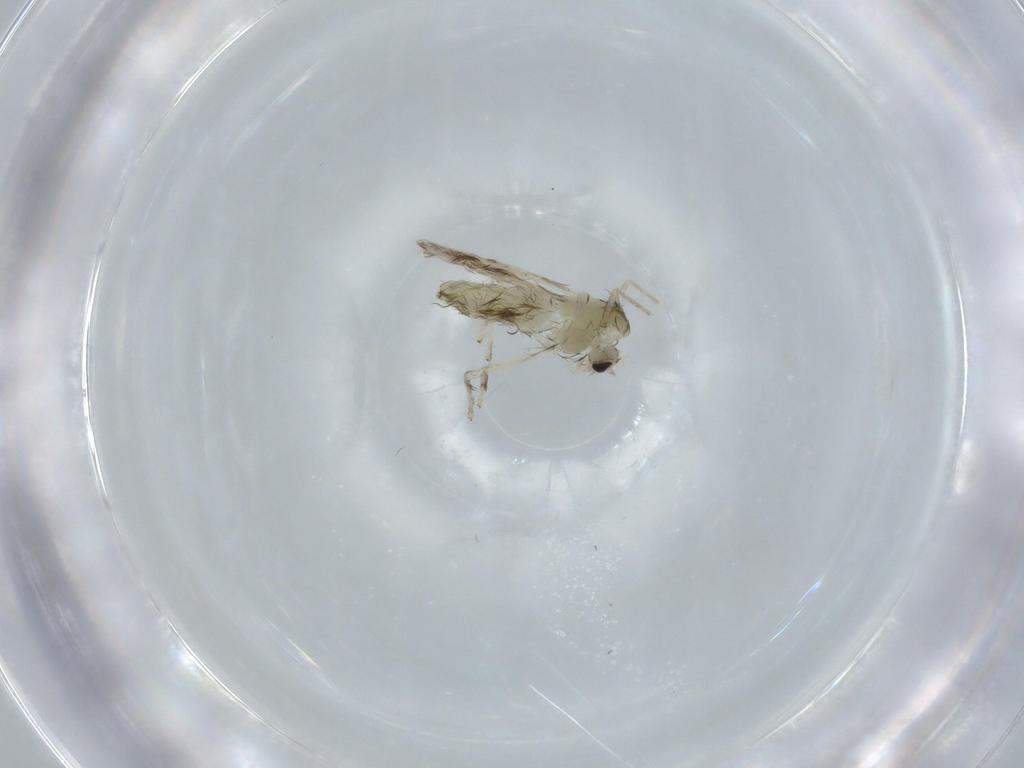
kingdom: Animalia
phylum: Arthropoda
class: Insecta
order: Diptera
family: Chironomidae
